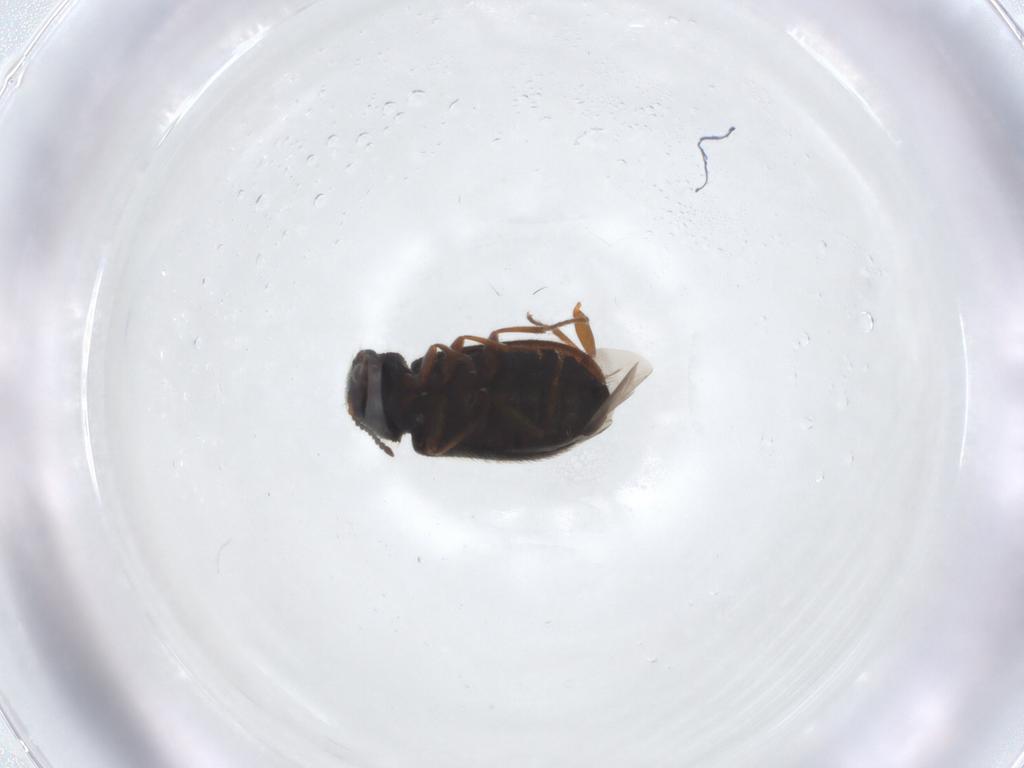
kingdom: Animalia
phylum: Arthropoda
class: Insecta
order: Coleoptera
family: Melyridae
